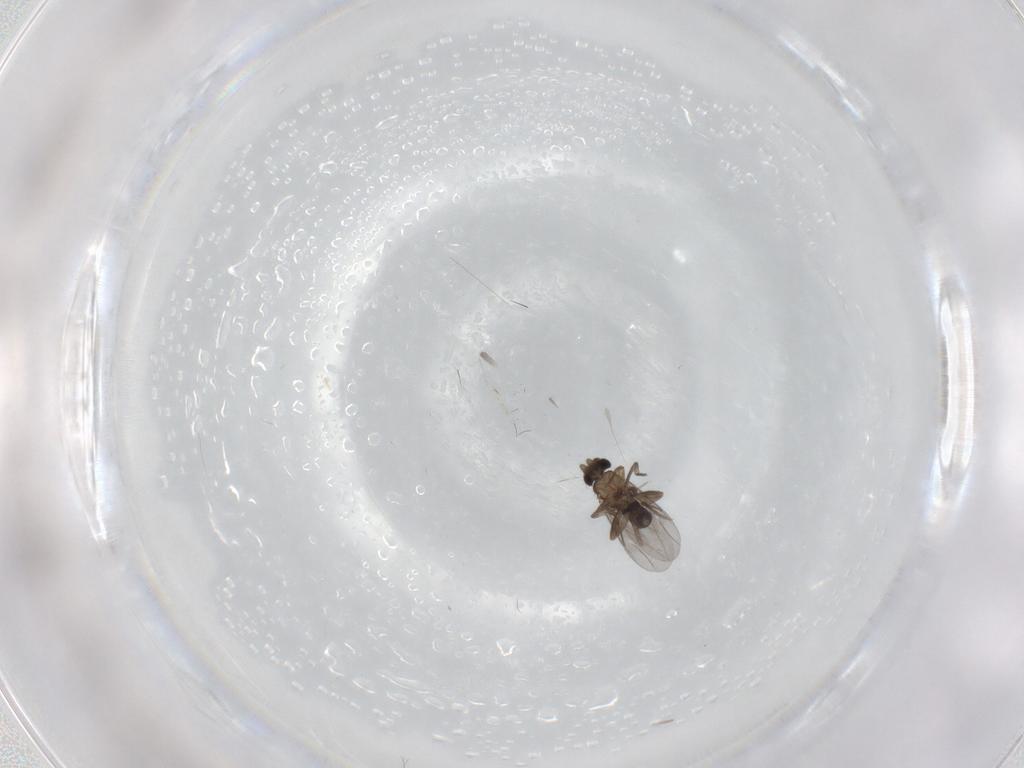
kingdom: Animalia
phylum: Arthropoda
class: Insecta
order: Diptera
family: Cecidomyiidae
